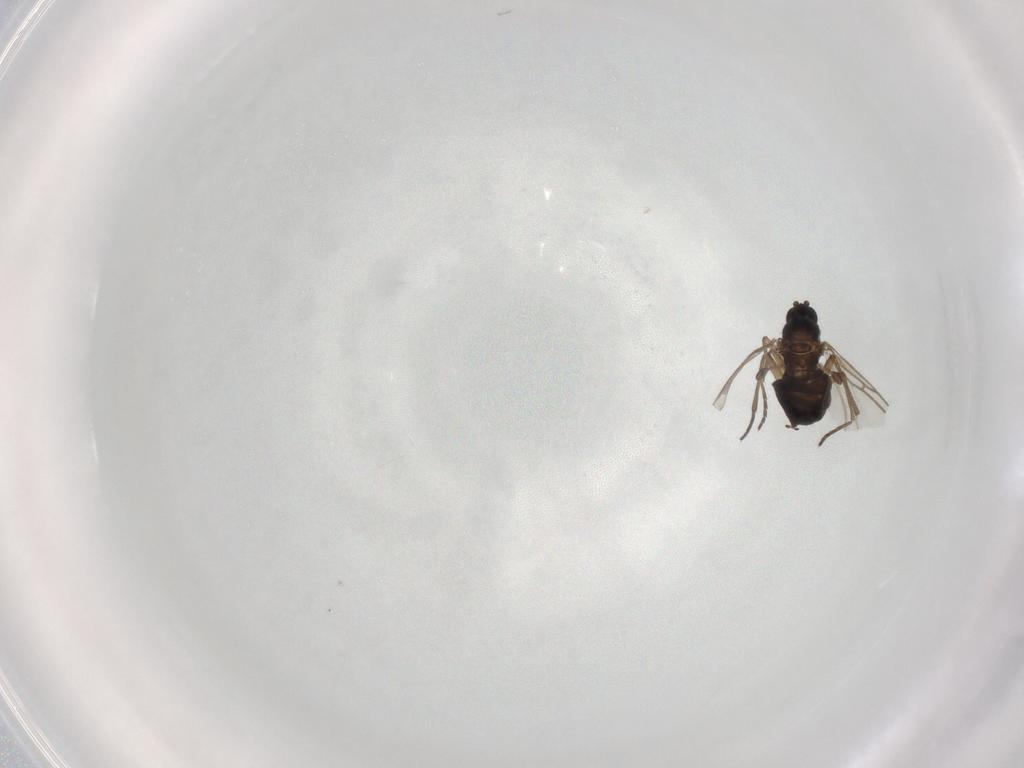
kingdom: Animalia
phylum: Arthropoda
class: Insecta
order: Diptera
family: Sciaridae
